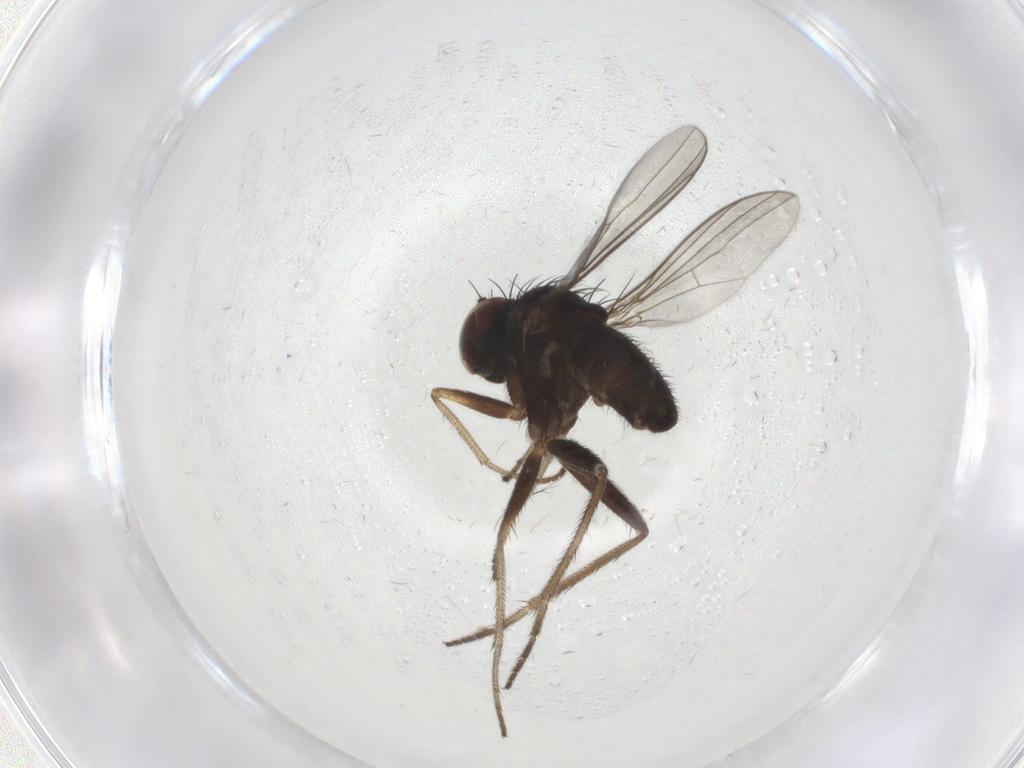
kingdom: Animalia
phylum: Arthropoda
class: Insecta
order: Diptera
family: Dolichopodidae
